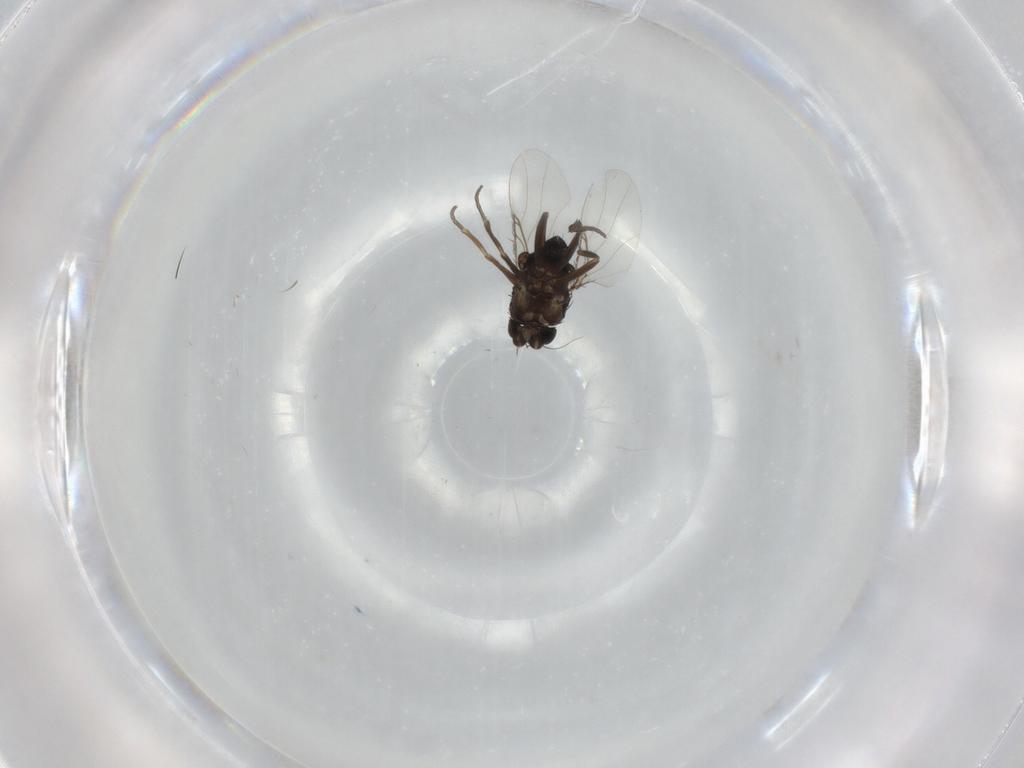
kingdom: Animalia
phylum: Arthropoda
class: Insecta
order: Diptera
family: Phoridae
